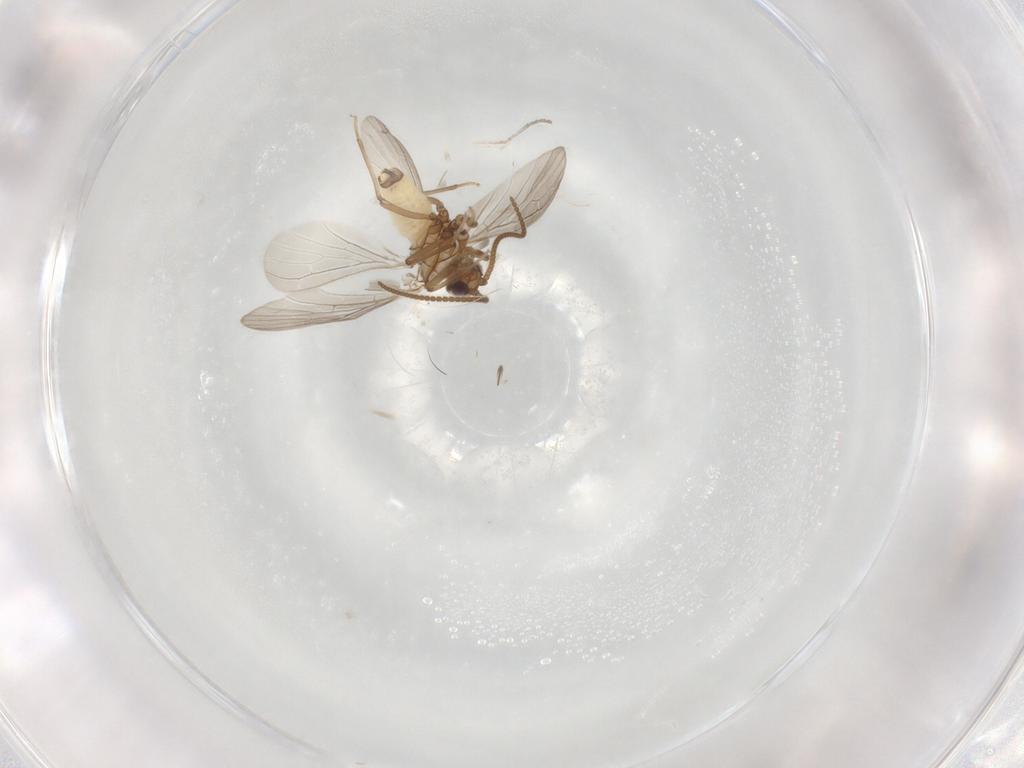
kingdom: Animalia
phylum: Arthropoda
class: Insecta
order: Neuroptera
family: Coniopterygidae
